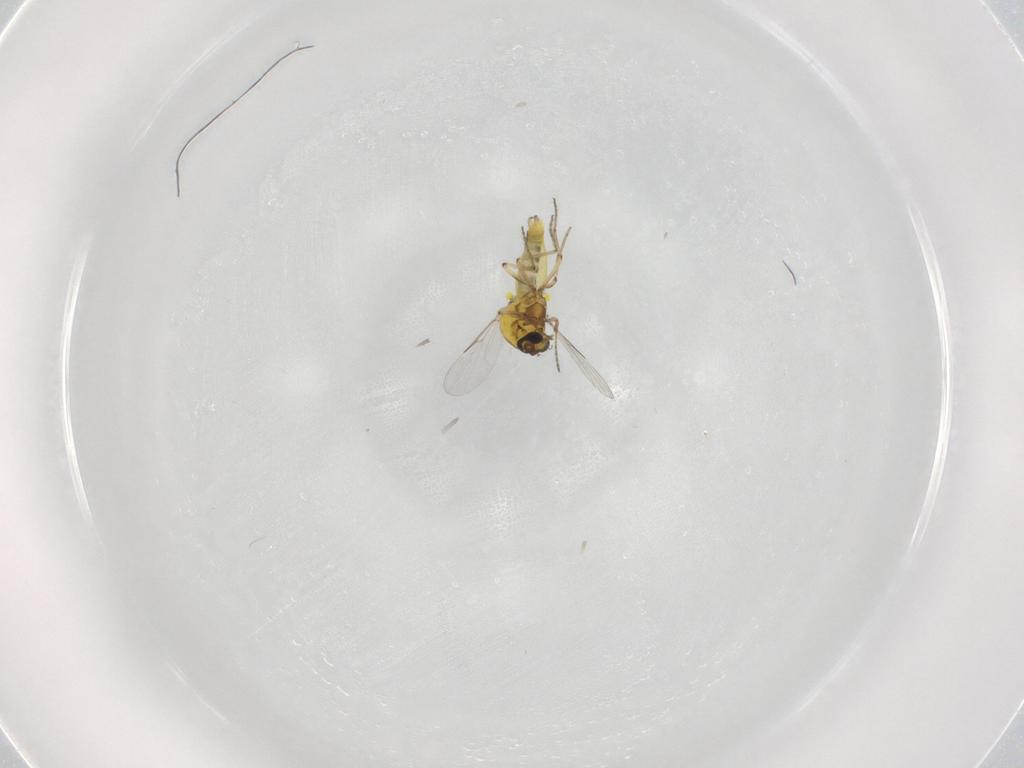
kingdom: Animalia
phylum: Arthropoda
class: Insecta
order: Diptera
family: Ceratopogonidae
